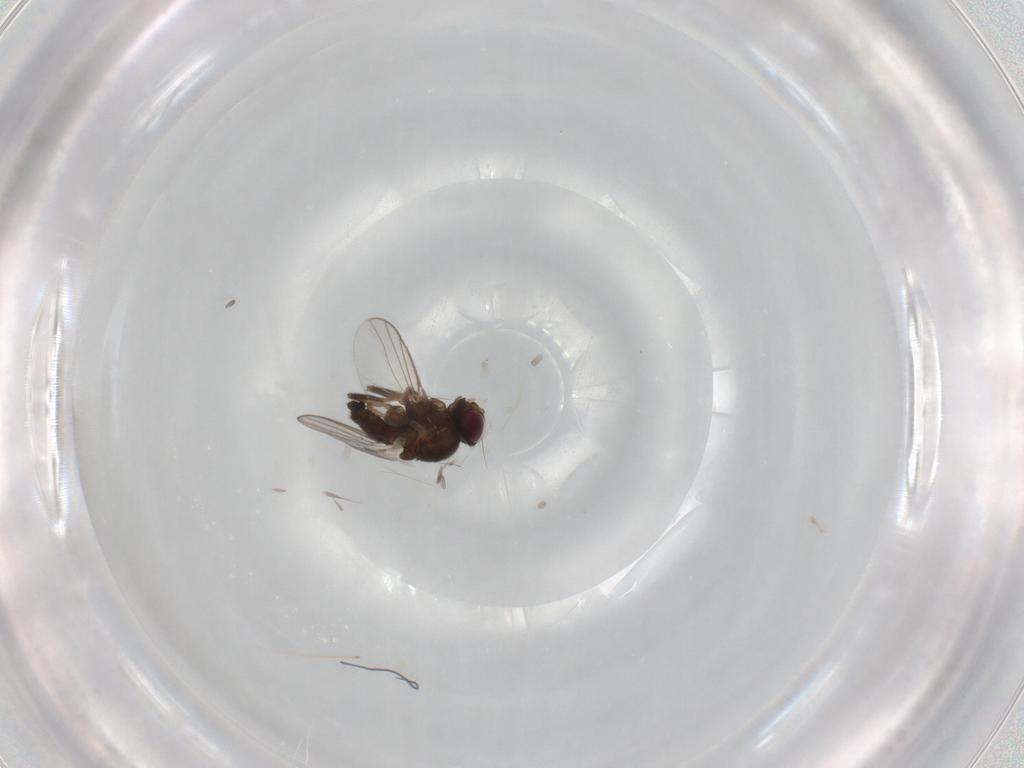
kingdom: Animalia
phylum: Arthropoda
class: Insecta
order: Diptera
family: Chloropidae
